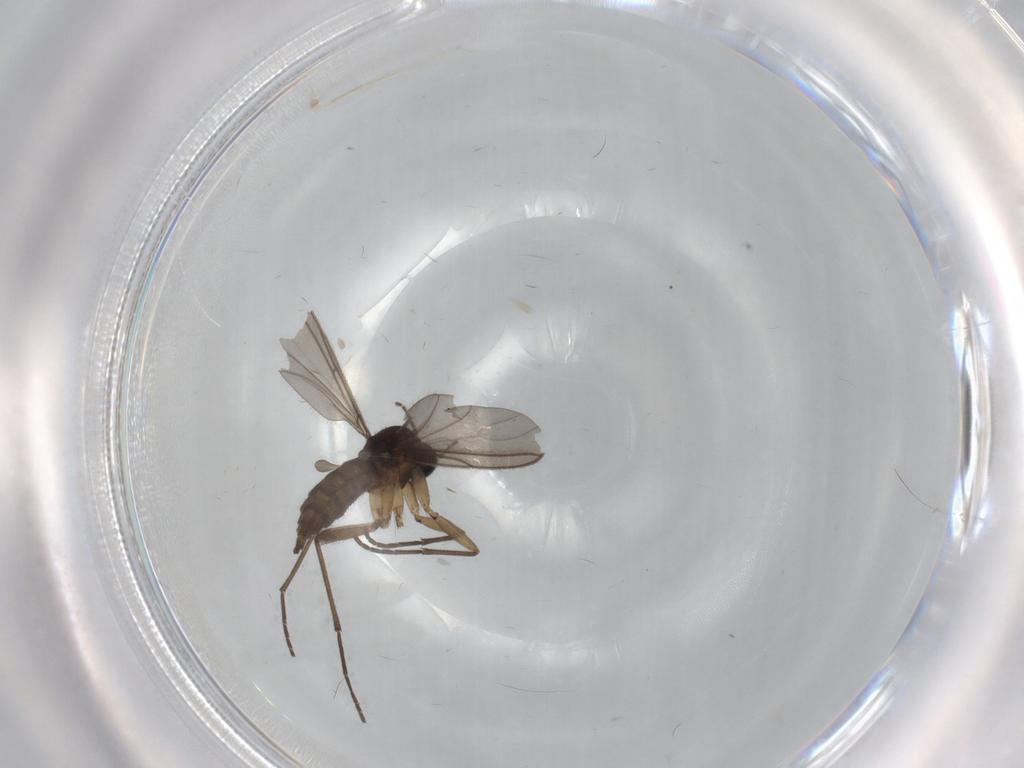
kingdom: Animalia
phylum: Arthropoda
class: Insecta
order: Diptera
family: Sciaridae
